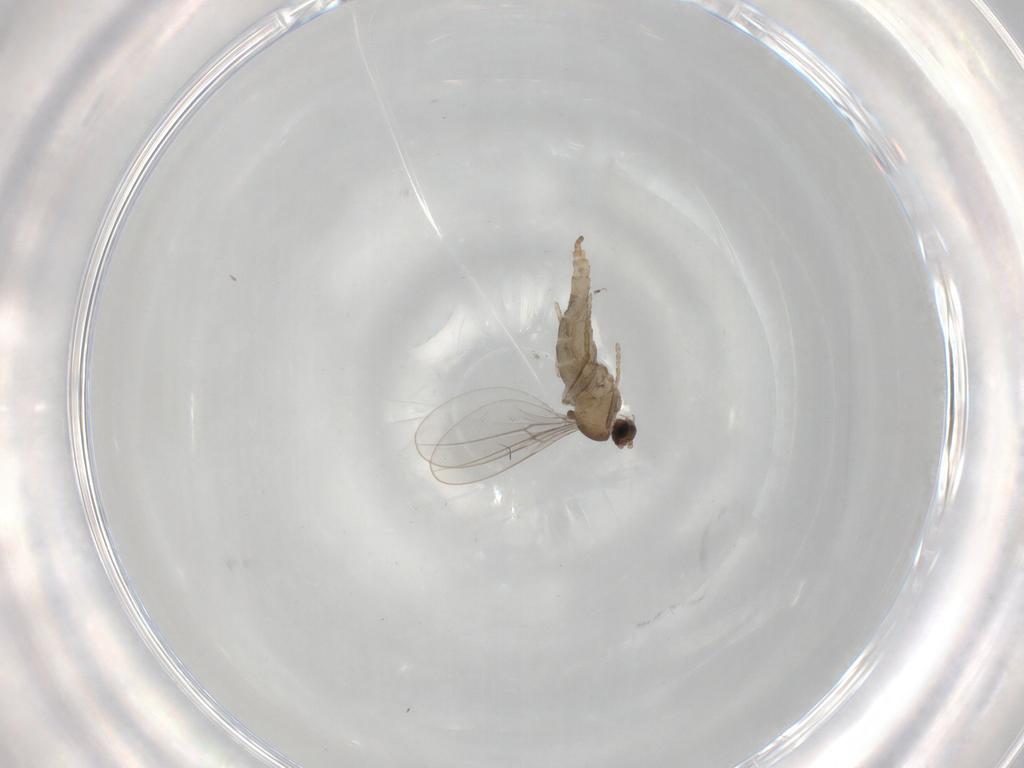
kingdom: Animalia
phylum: Arthropoda
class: Insecta
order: Diptera
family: Cecidomyiidae
